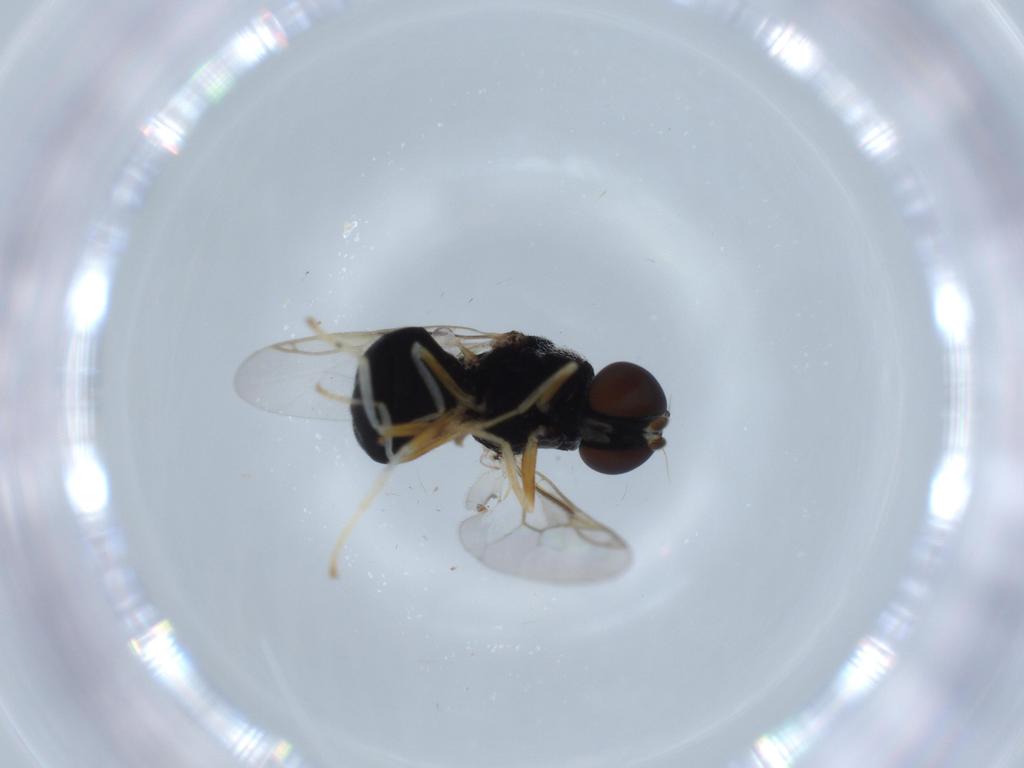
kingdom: Animalia
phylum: Arthropoda
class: Insecta
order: Diptera
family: Stratiomyidae
